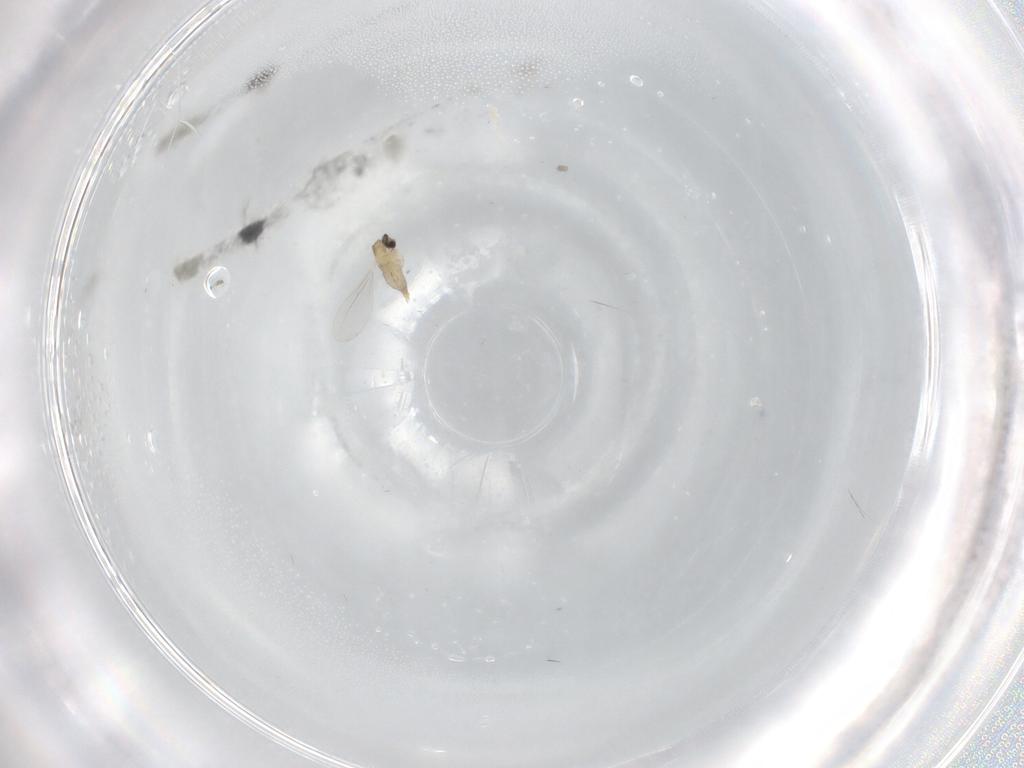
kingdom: Animalia
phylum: Arthropoda
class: Insecta
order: Diptera
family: Cecidomyiidae
